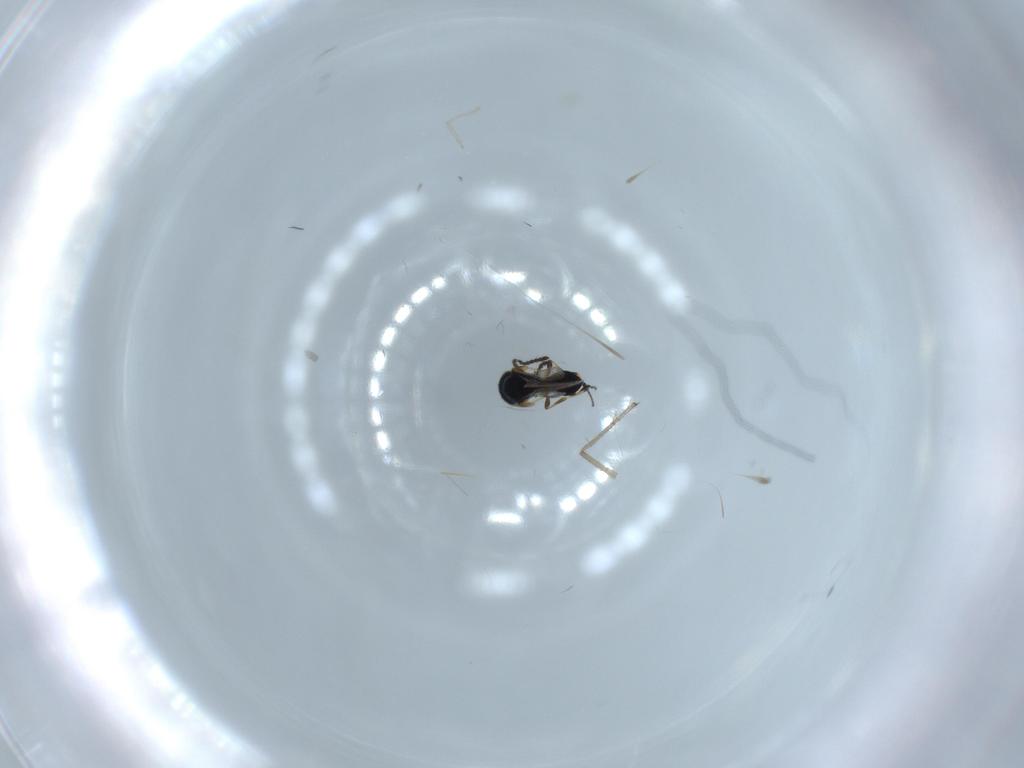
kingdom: Animalia
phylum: Arthropoda
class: Insecta
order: Hymenoptera
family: Platygastridae
